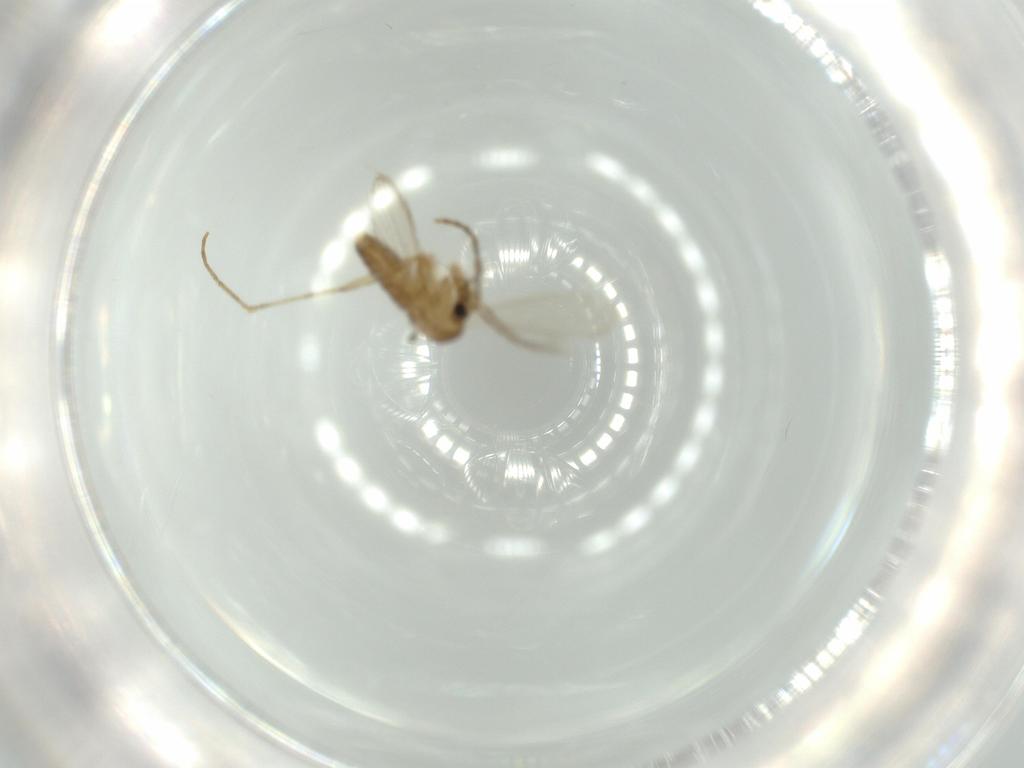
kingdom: Animalia
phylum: Arthropoda
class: Insecta
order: Diptera
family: Psychodidae
